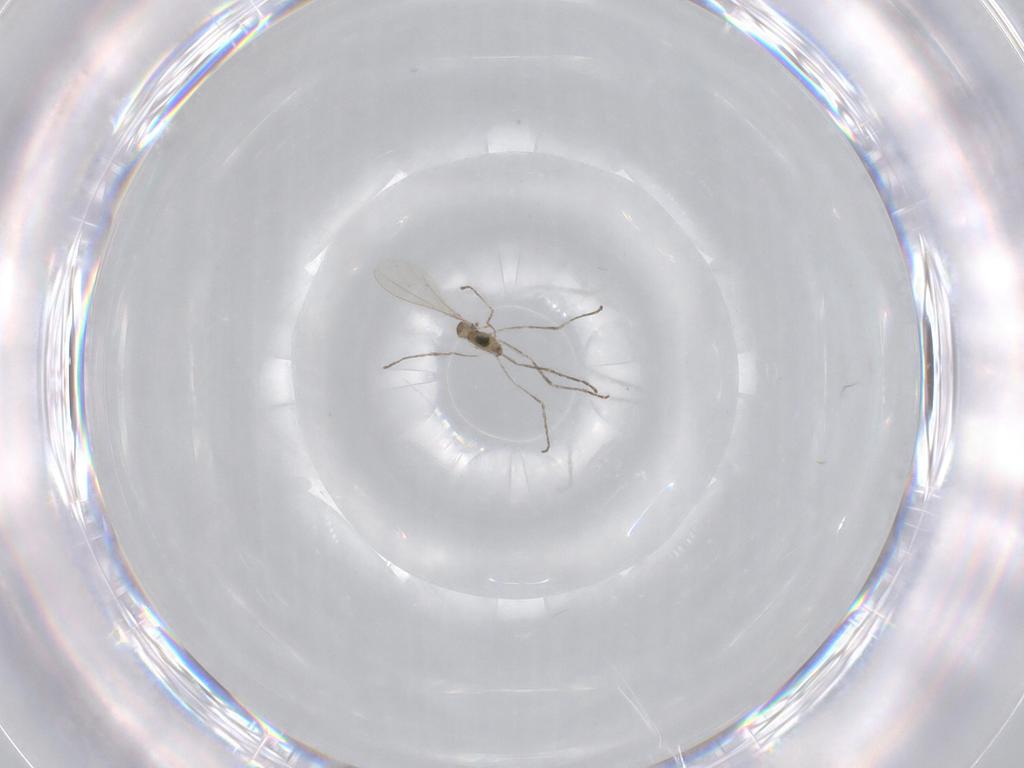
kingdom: Animalia
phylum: Arthropoda
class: Insecta
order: Diptera
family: Cecidomyiidae
